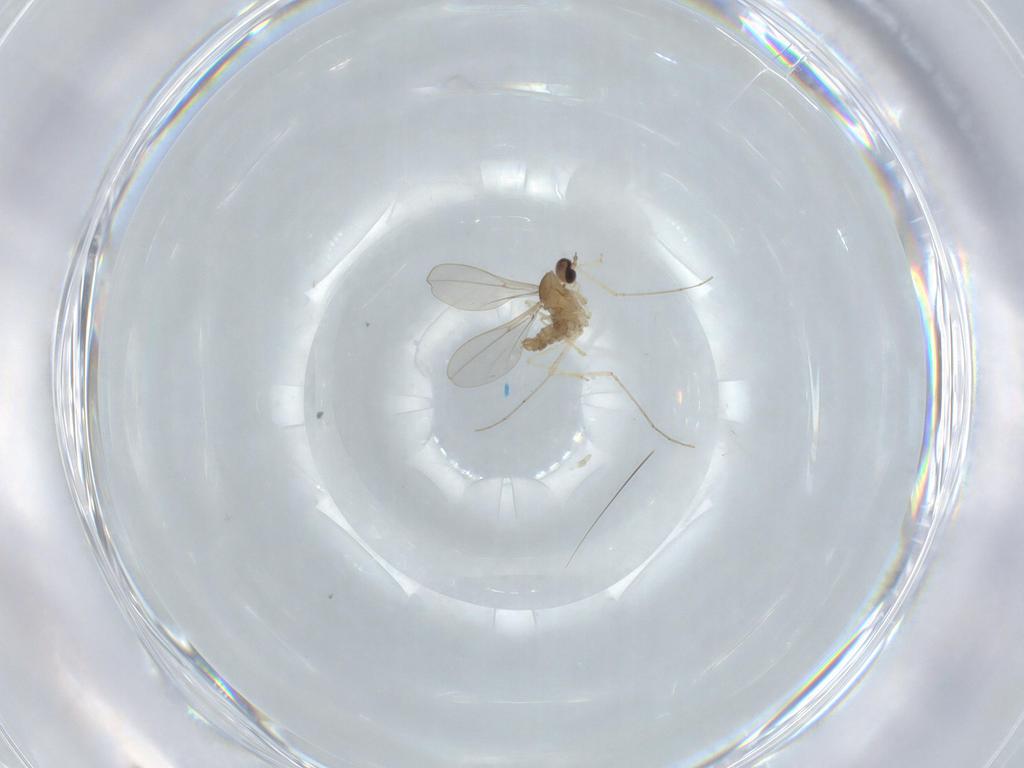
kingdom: Animalia
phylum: Arthropoda
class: Insecta
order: Diptera
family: Cecidomyiidae
